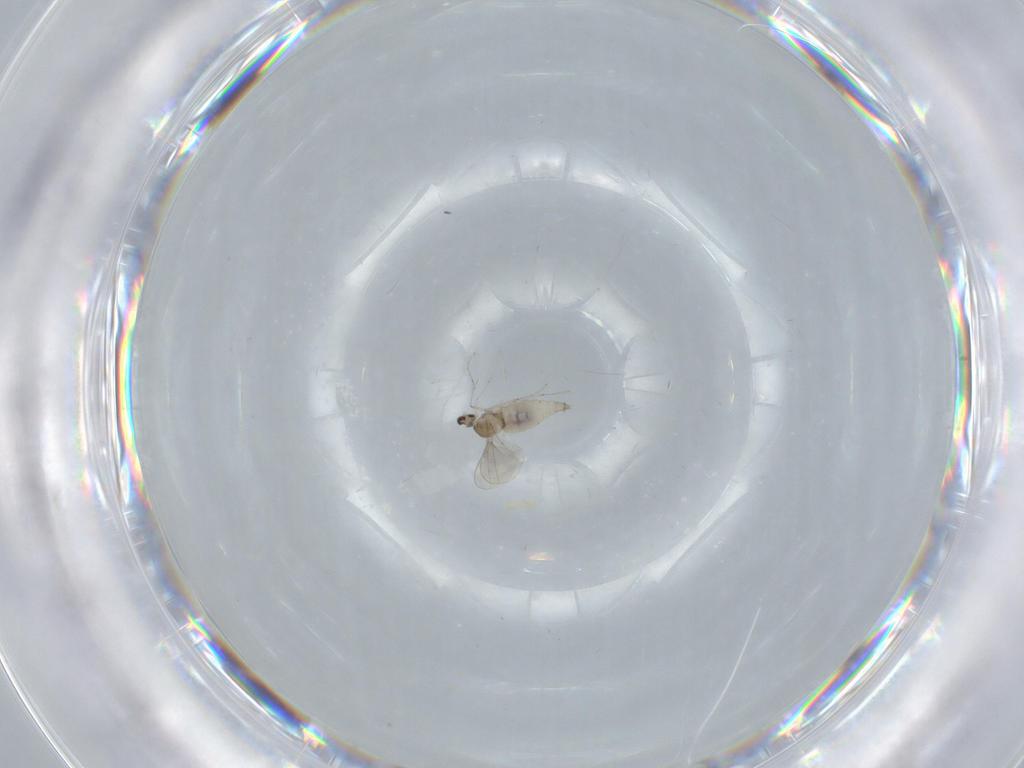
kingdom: Animalia
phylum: Arthropoda
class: Insecta
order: Diptera
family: Cecidomyiidae
